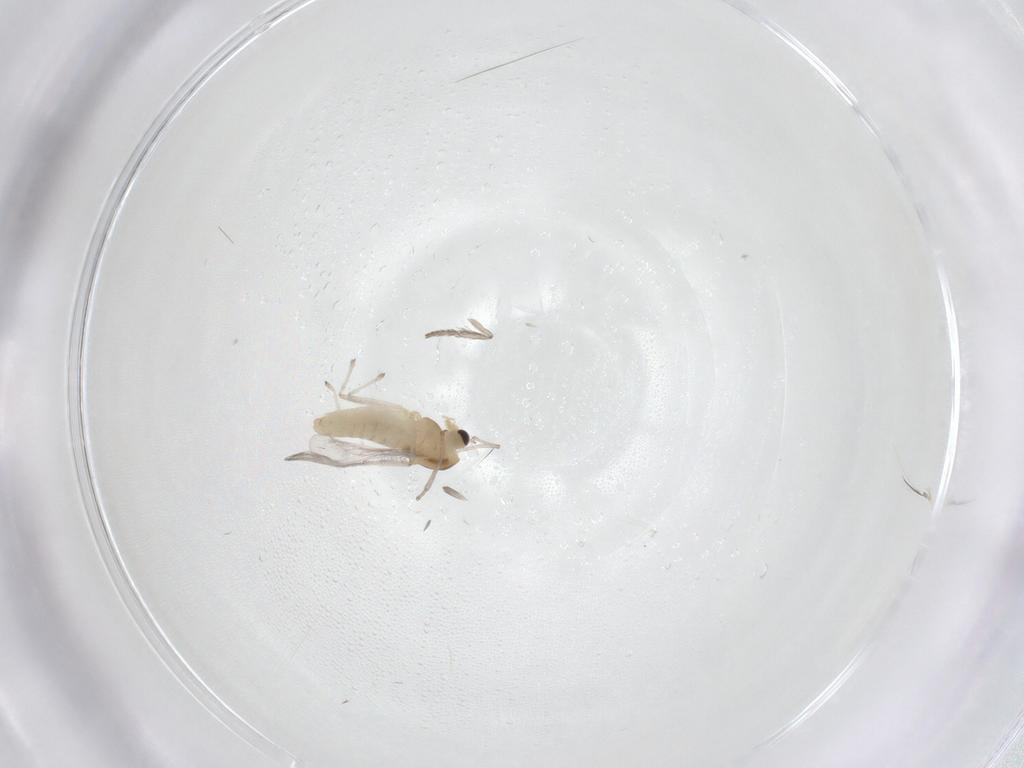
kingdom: Animalia
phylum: Arthropoda
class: Insecta
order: Diptera
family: Chironomidae
